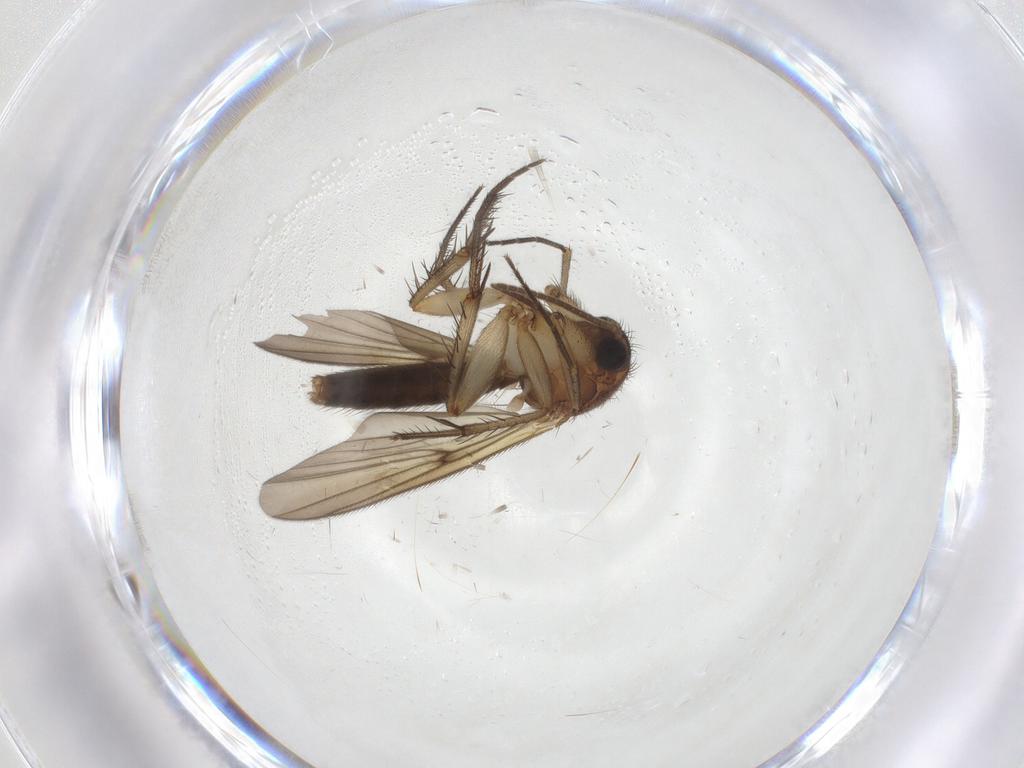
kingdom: Animalia
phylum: Arthropoda
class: Insecta
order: Diptera
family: Mycetophilidae
